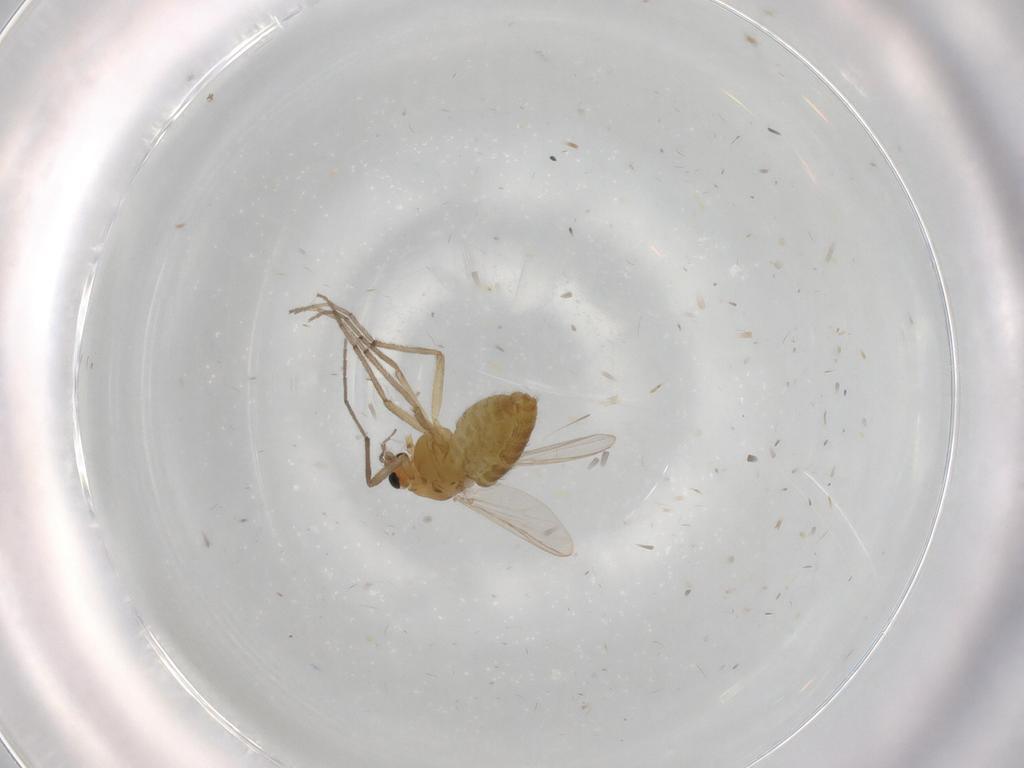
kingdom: Animalia
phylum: Arthropoda
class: Insecta
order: Diptera
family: Chironomidae
